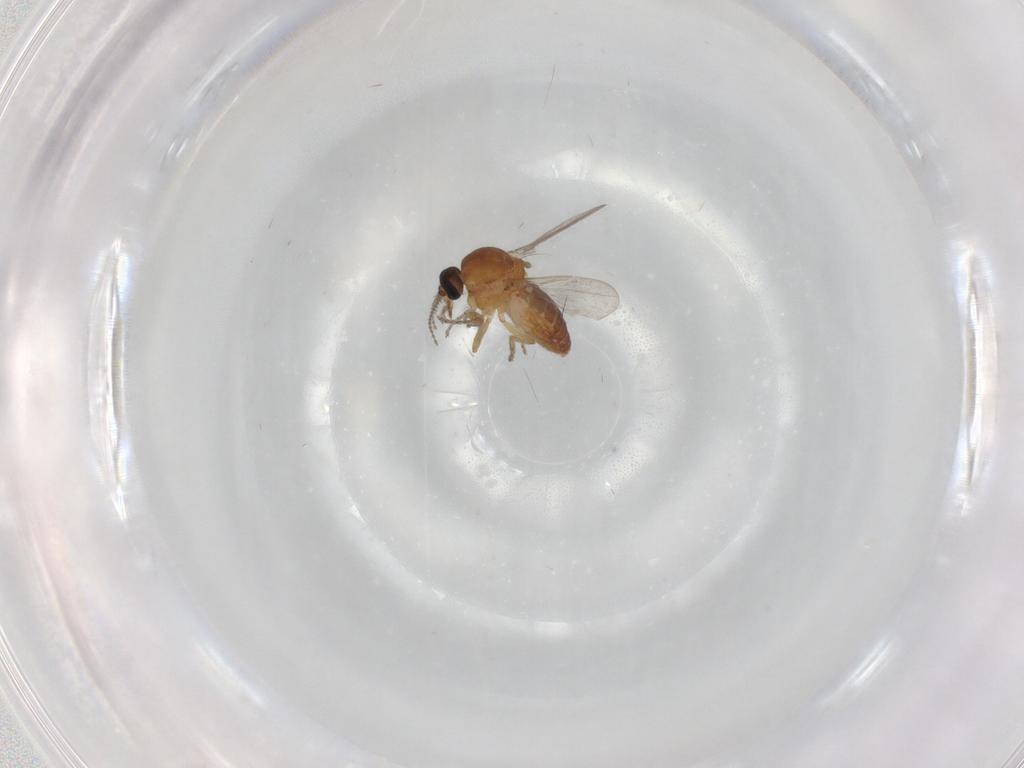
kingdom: Animalia
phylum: Arthropoda
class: Insecta
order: Diptera
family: Ceratopogonidae
